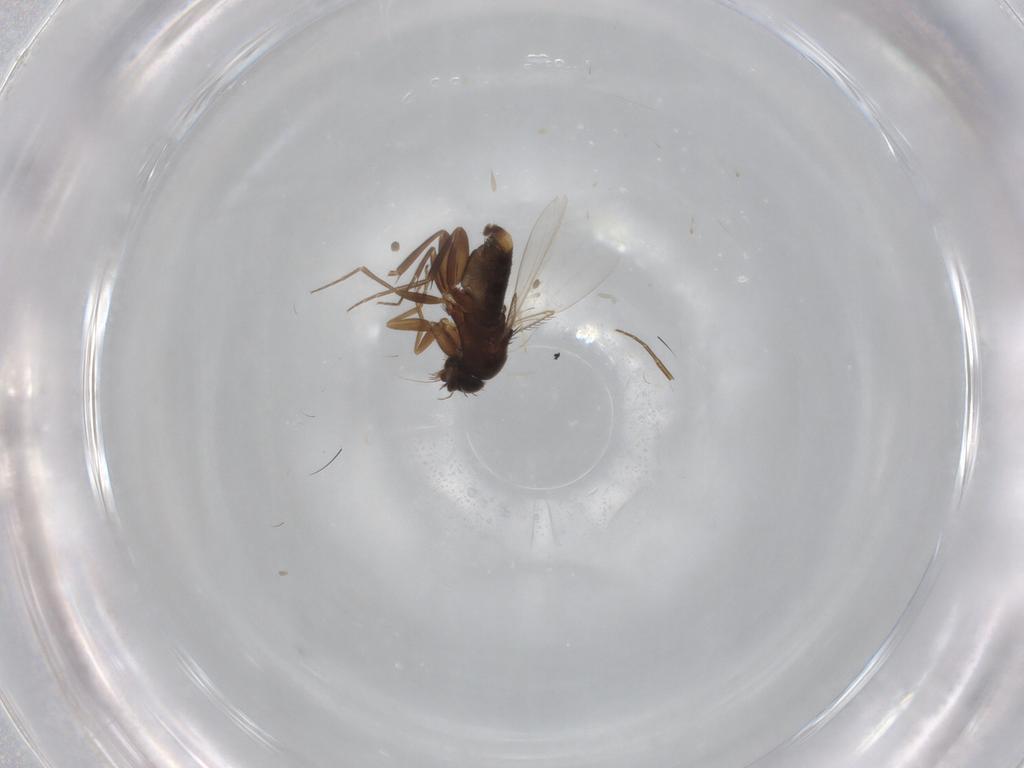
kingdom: Animalia
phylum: Arthropoda
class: Insecta
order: Diptera
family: Phoridae
